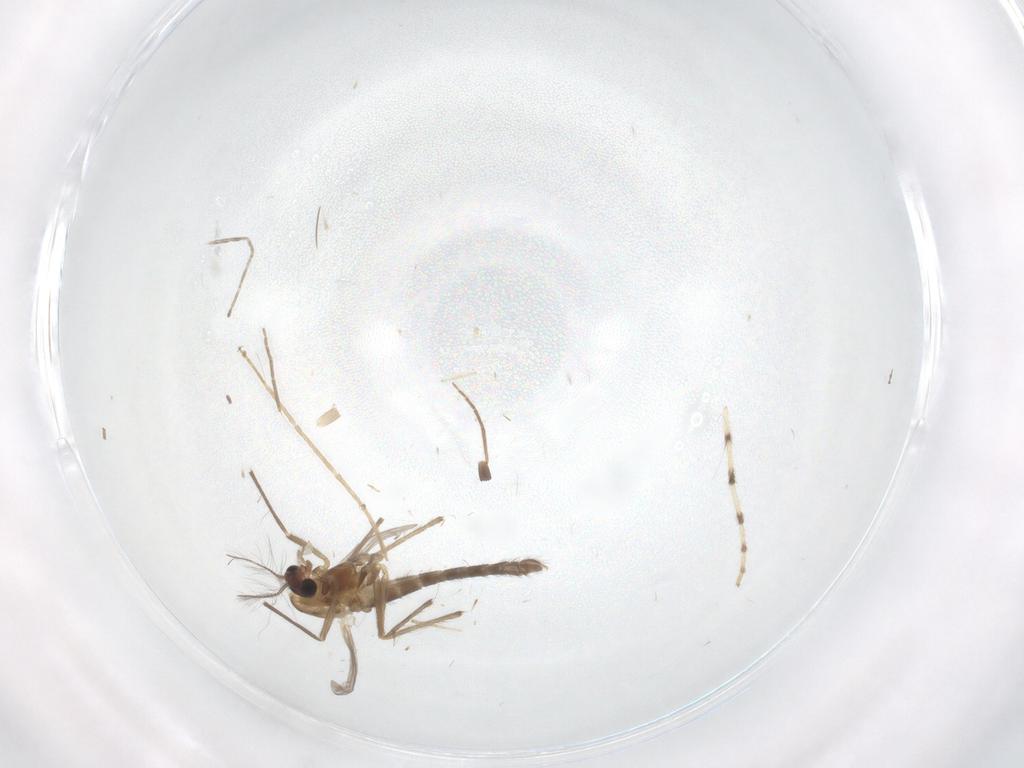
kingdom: Animalia
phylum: Arthropoda
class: Insecta
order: Diptera
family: Chironomidae
